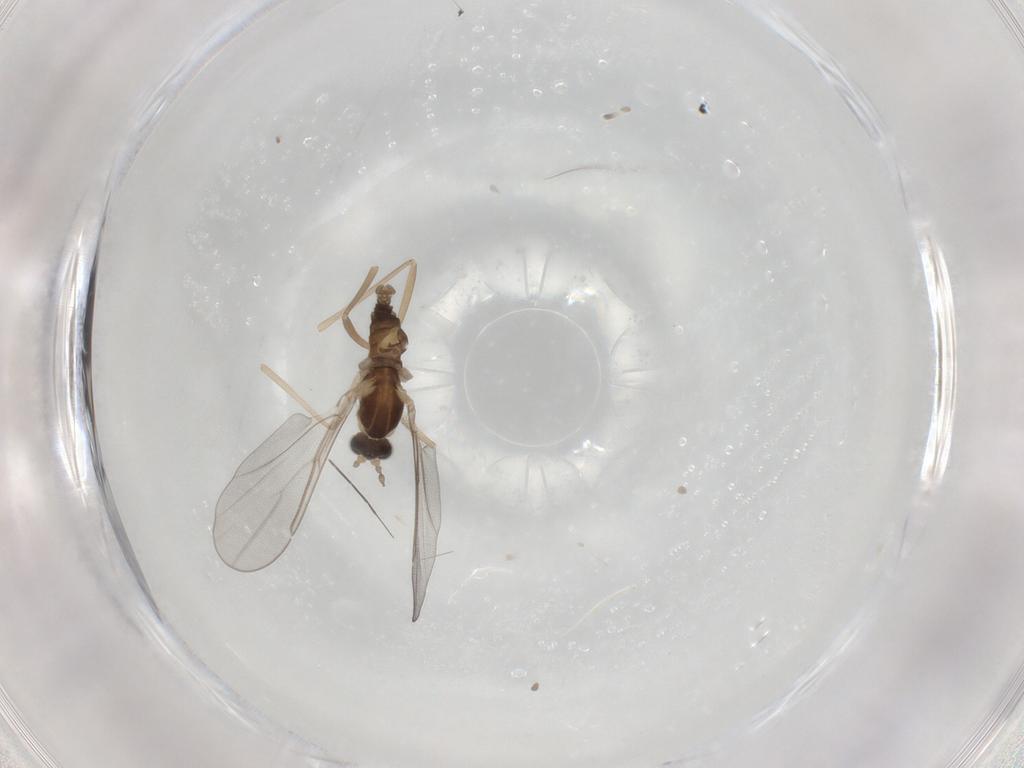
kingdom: Animalia
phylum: Arthropoda
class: Insecta
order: Diptera
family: Cecidomyiidae
